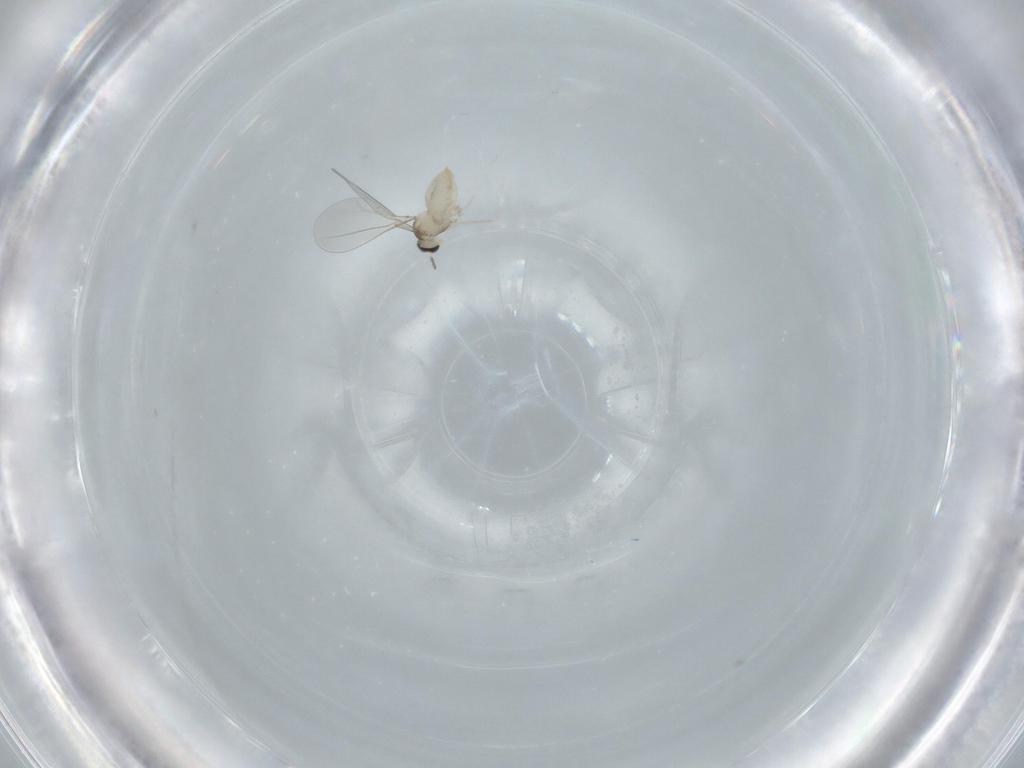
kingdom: Animalia
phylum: Arthropoda
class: Insecta
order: Diptera
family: Cecidomyiidae
